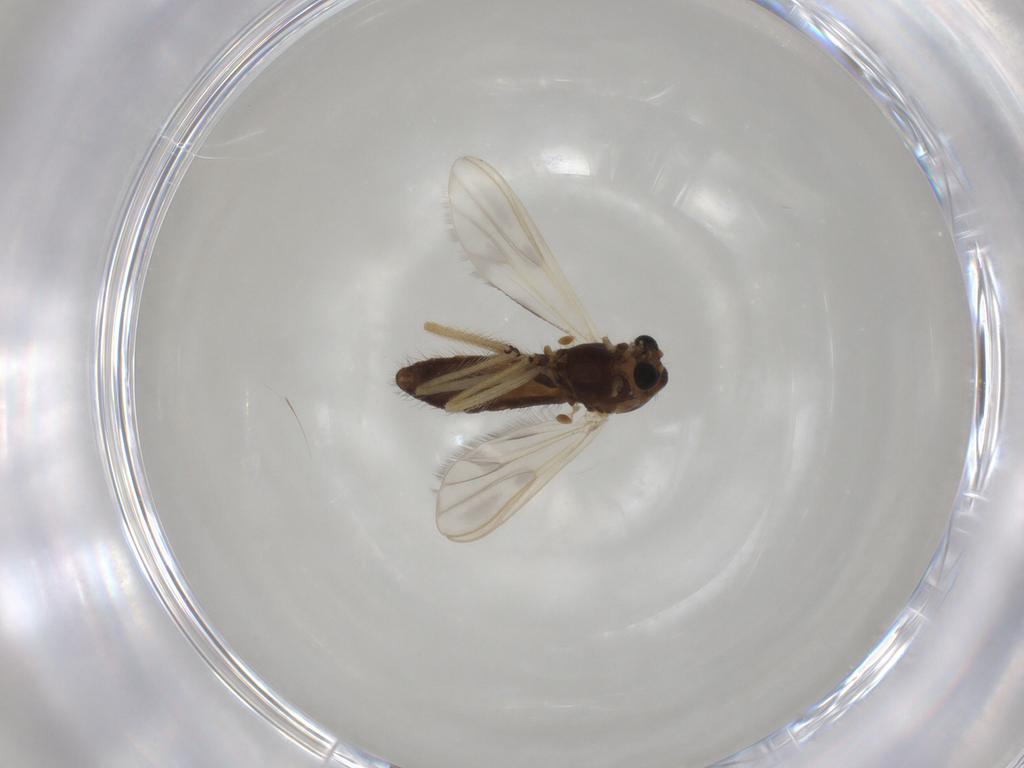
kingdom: Animalia
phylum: Arthropoda
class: Insecta
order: Diptera
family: Chironomidae
